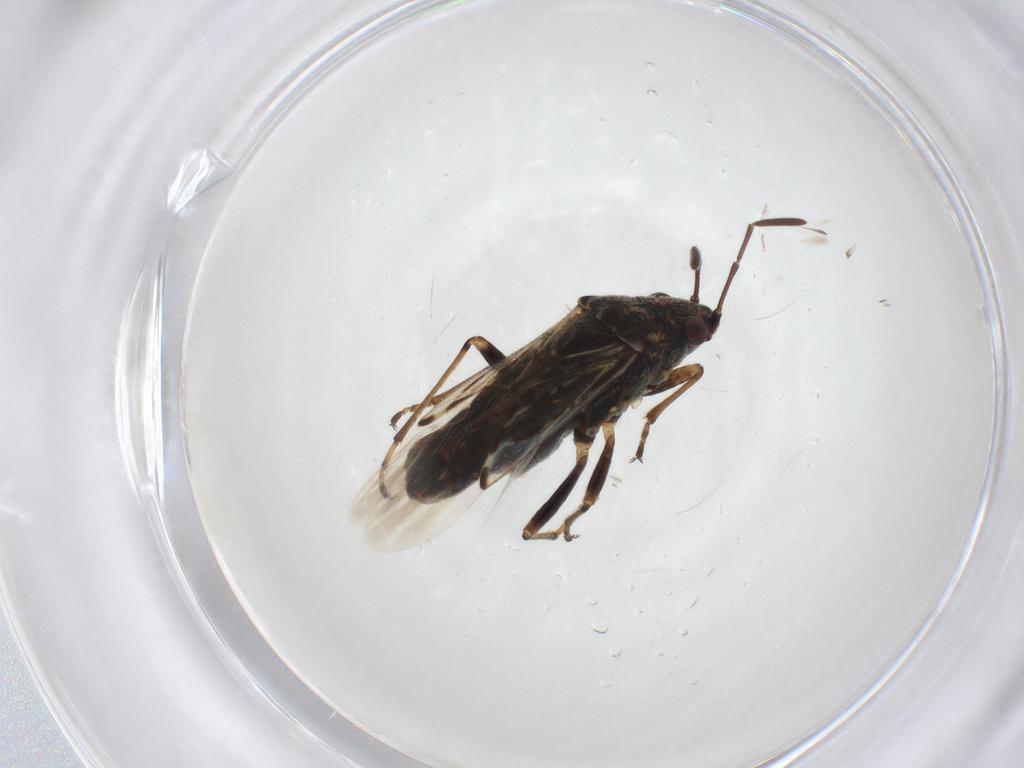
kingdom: Animalia
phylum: Arthropoda
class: Insecta
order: Hemiptera
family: Lygaeidae
